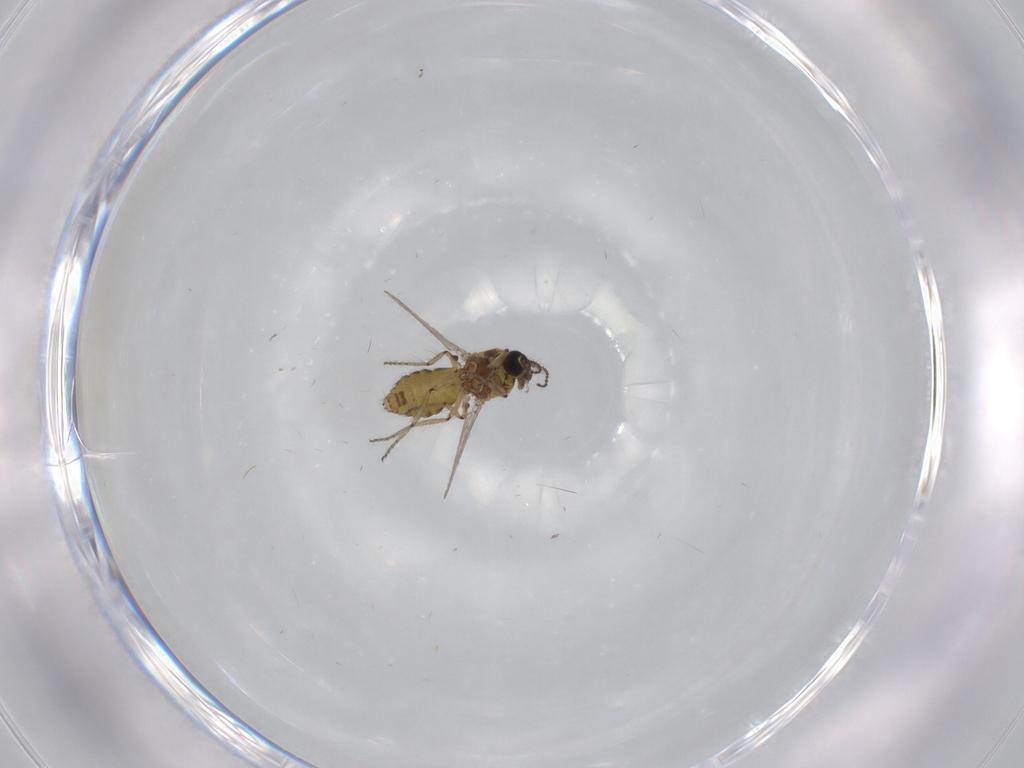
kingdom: Animalia
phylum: Arthropoda
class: Insecta
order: Diptera
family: Ceratopogonidae
